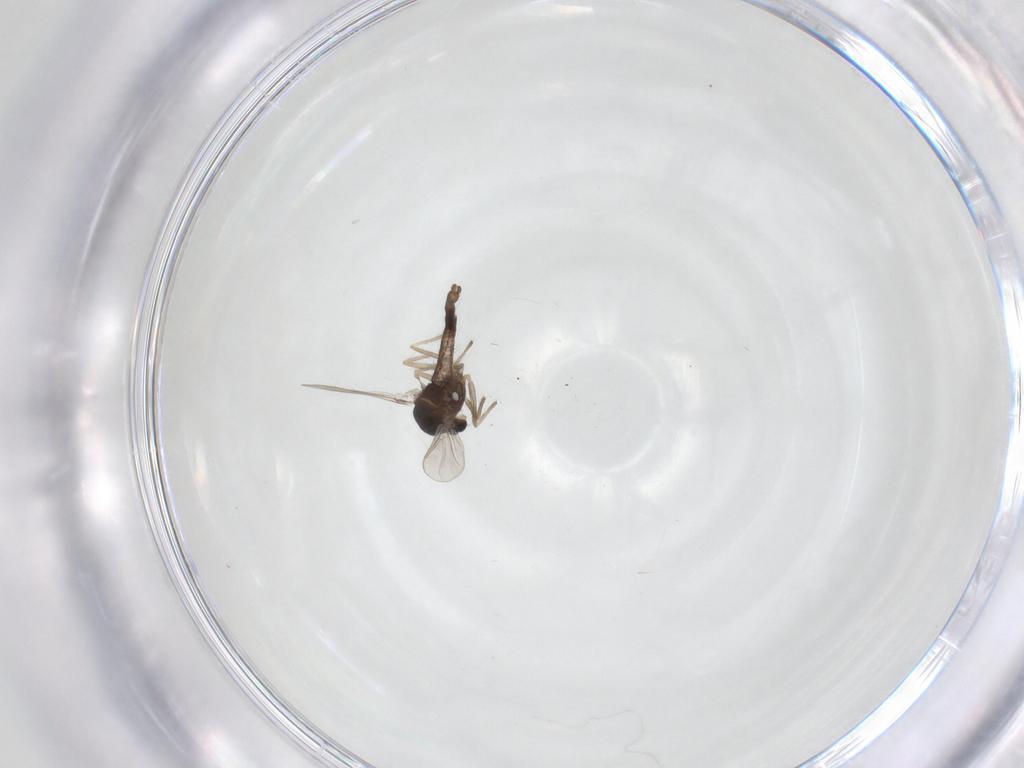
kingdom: Animalia
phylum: Arthropoda
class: Insecta
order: Diptera
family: Chironomidae
